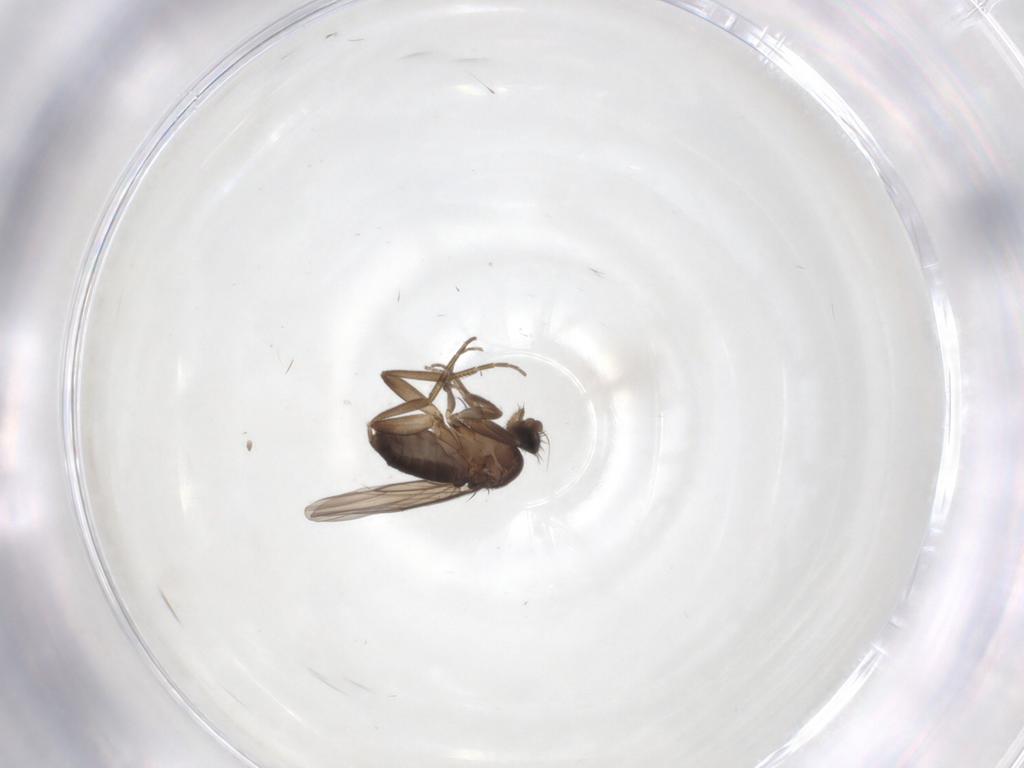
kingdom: Animalia
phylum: Arthropoda
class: Insecta
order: Diptera
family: Phoridae
